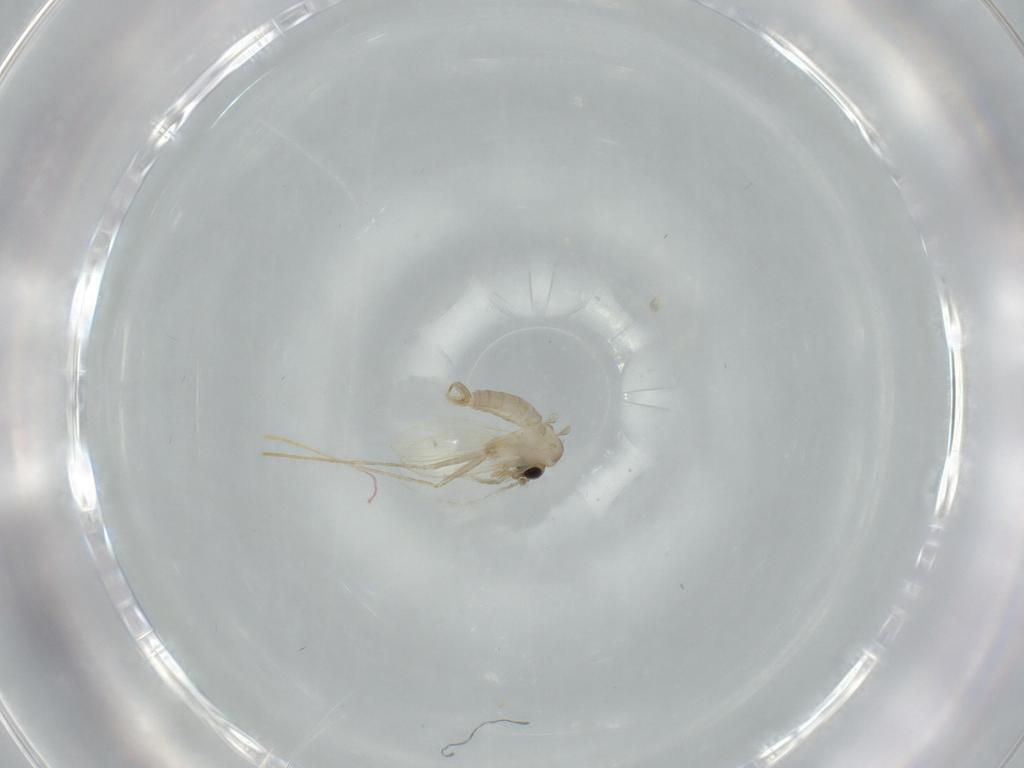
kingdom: Animalia
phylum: Arthropoda
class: Insecta
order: Diptera
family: Psychodidae
